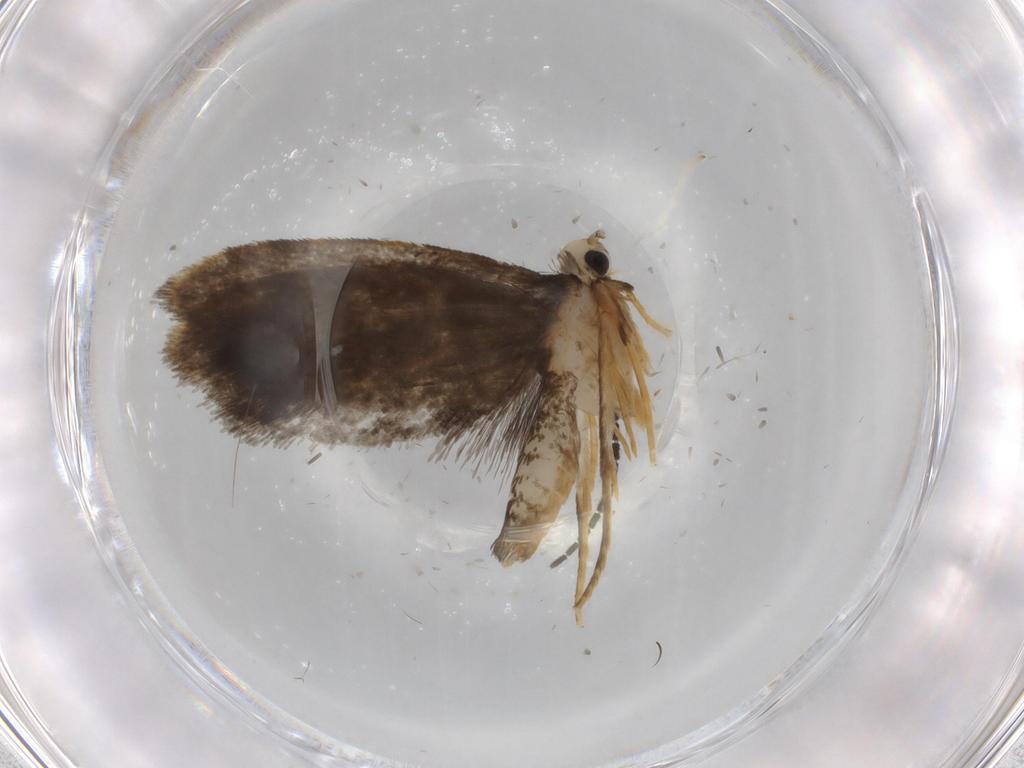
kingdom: Animalia
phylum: Arthropoda
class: Insecta
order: Lepidoptera
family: Psychidae
